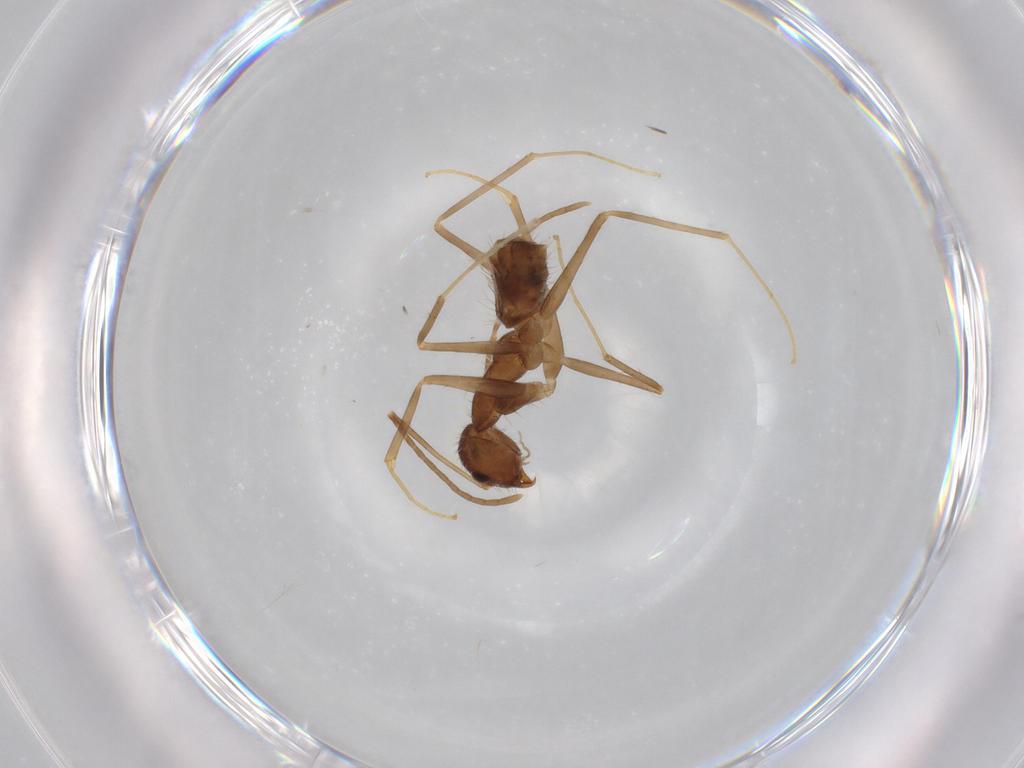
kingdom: Animalia
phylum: Arthropoda
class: Insecta
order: Hymenoptera
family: Formicidae
